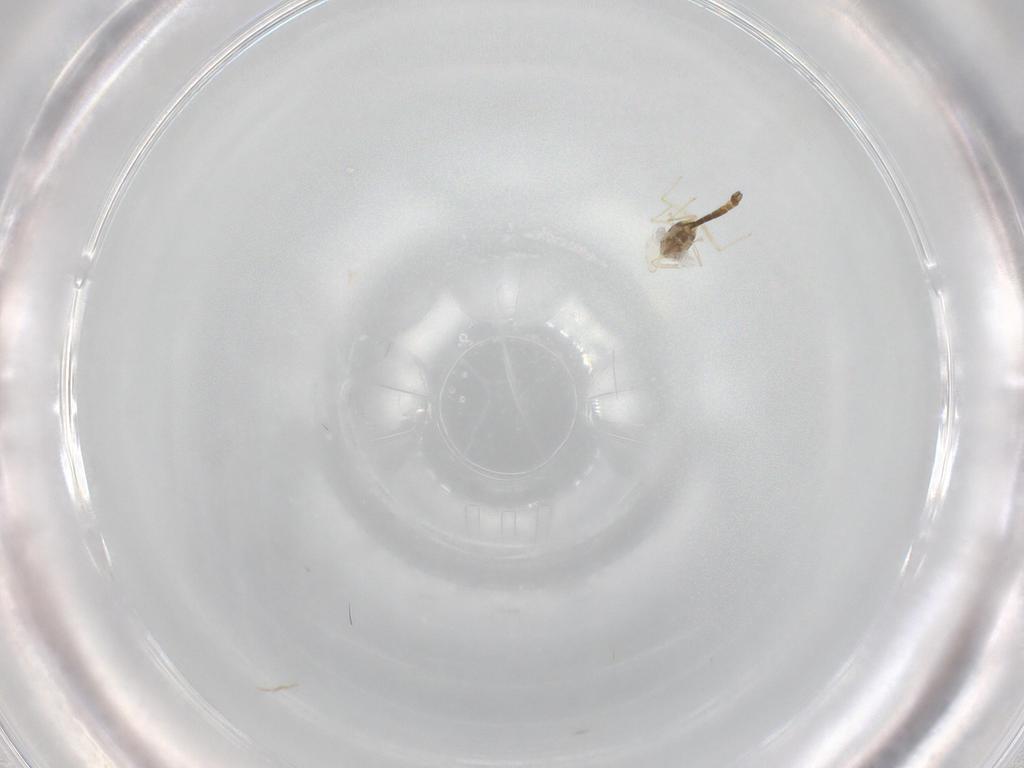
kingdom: Animalia
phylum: Arthropoda
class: Insecta
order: Diptera
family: Chironomidae
